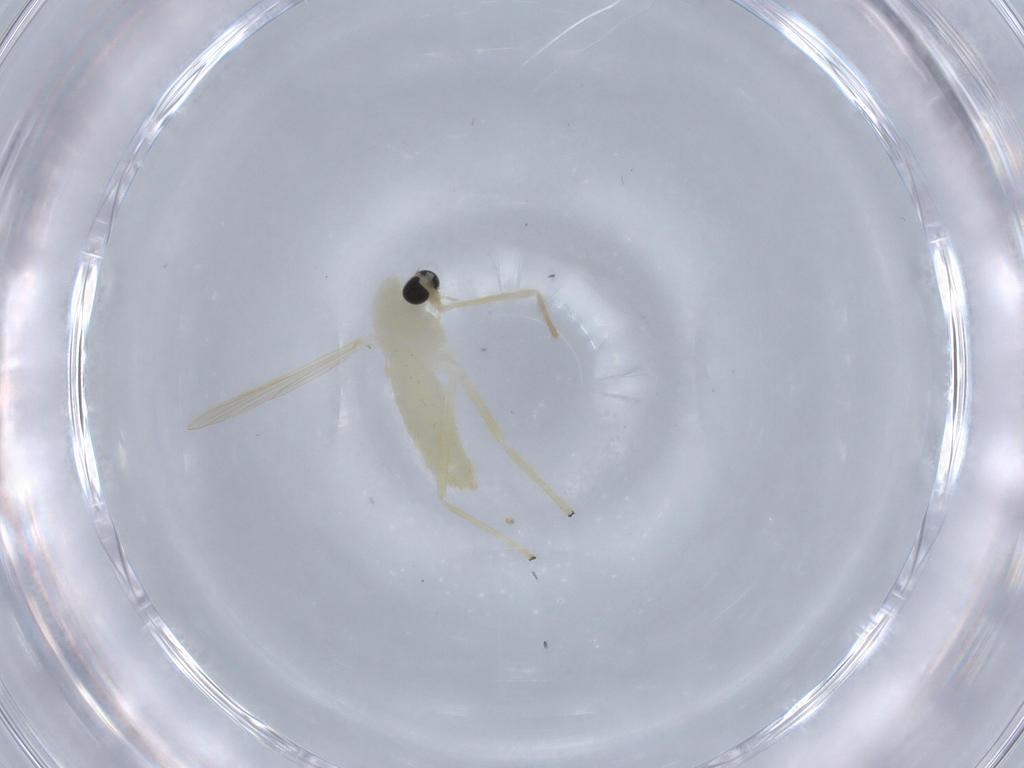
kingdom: Animalia
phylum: Arthropoda
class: Insecta
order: Diptera
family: Chironomidae
